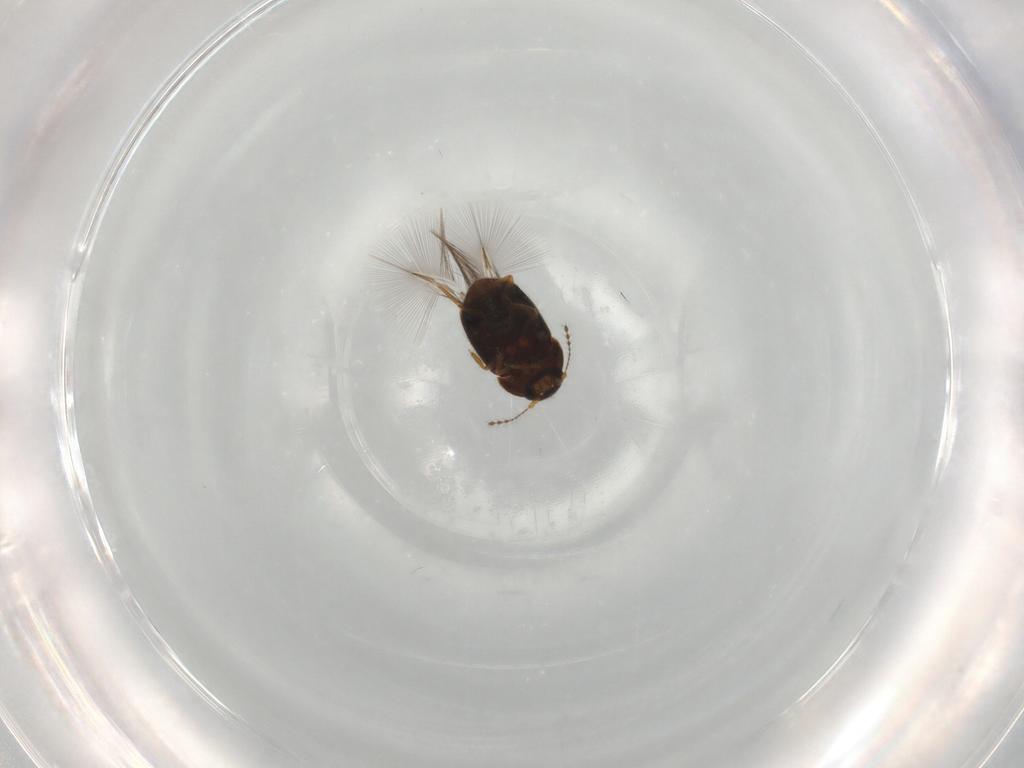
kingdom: Animalia
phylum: Arthropoda
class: Insecta
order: Coleoptera
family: Ptiliidae
